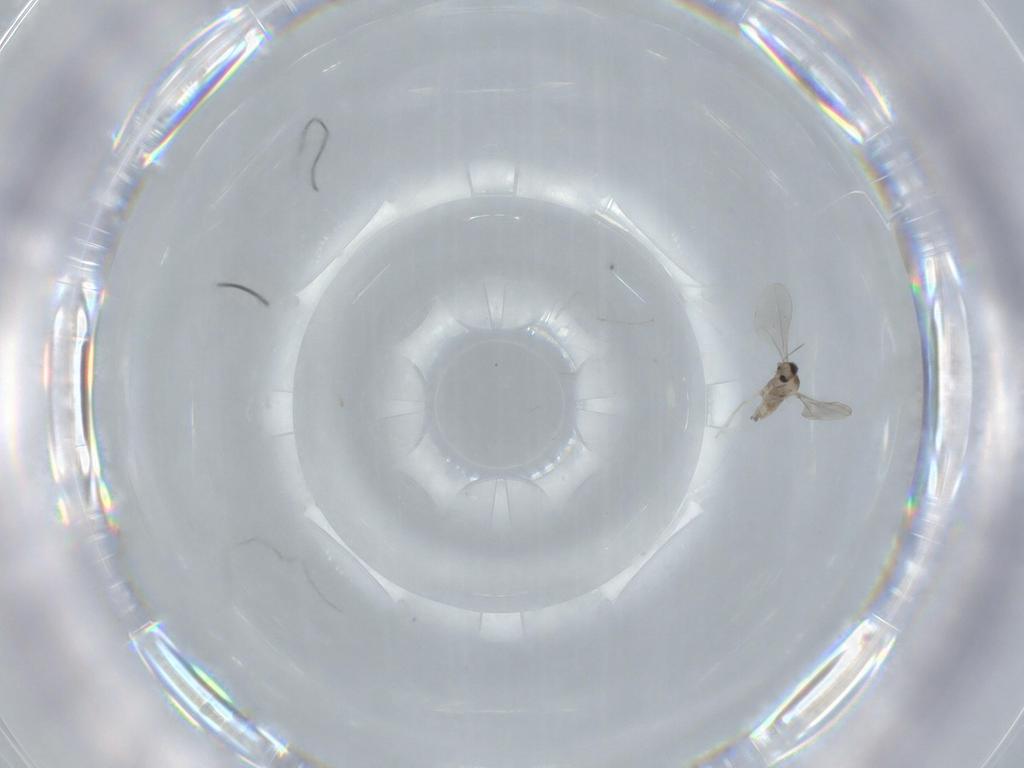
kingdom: Animalia
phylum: Arthropoda
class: Insecta
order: Diptera
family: Cecidomyiidae
